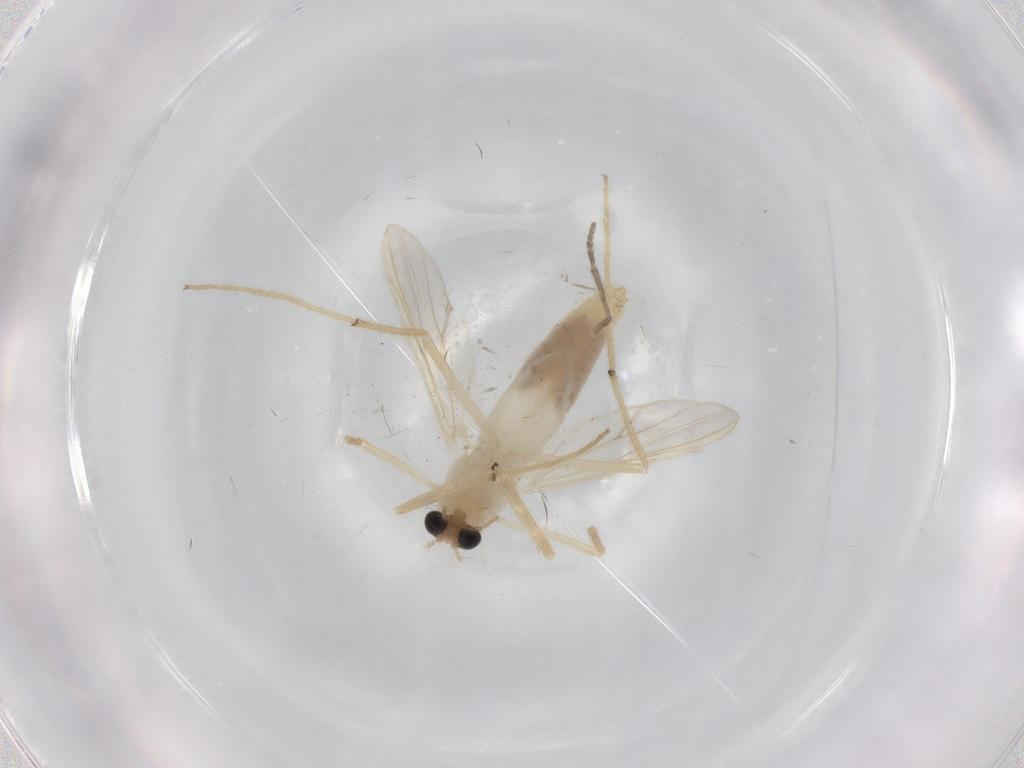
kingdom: Animalia
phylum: Arthropoda
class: Insecta
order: Diptera
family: Chironomidae
